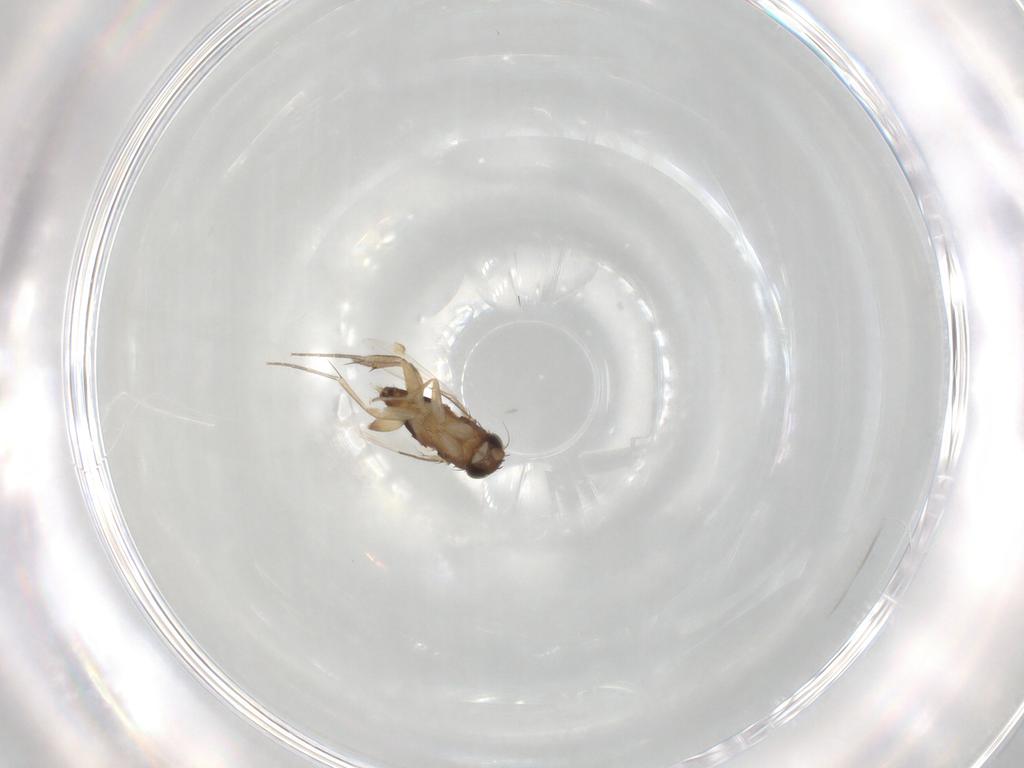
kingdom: Animalia
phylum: Arthropoda
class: Insecta
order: Diptera
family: Phoridae
